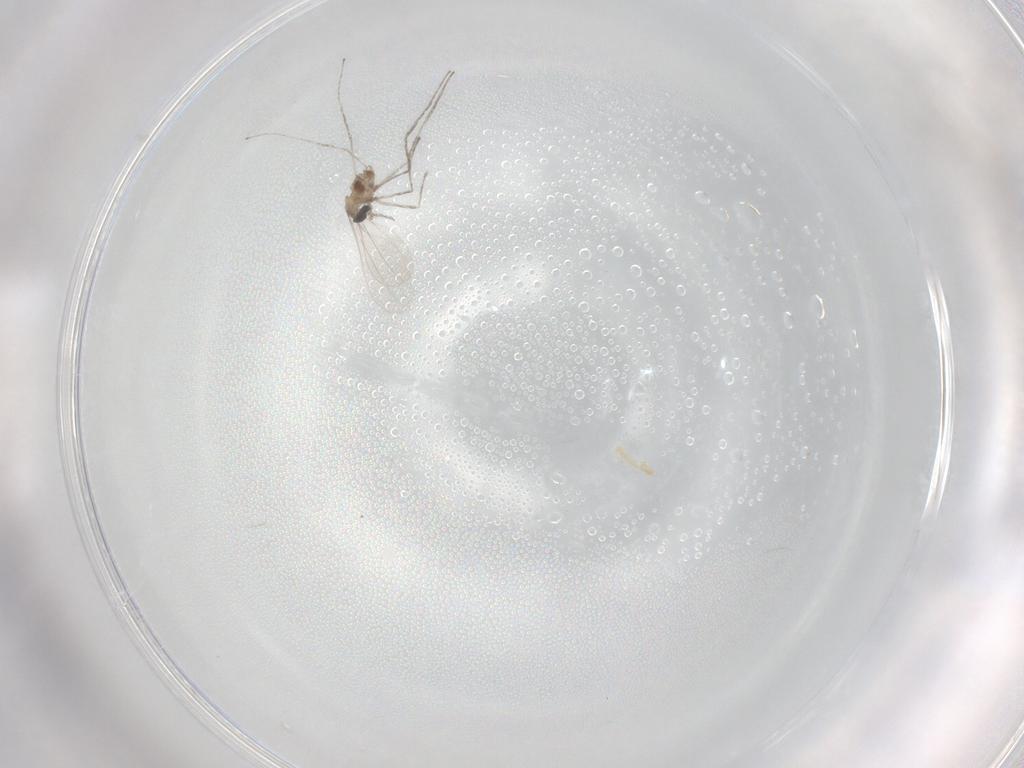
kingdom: Animalia
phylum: Arthropoda
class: Insecta
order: Diptera
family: Cecidomyiidae
